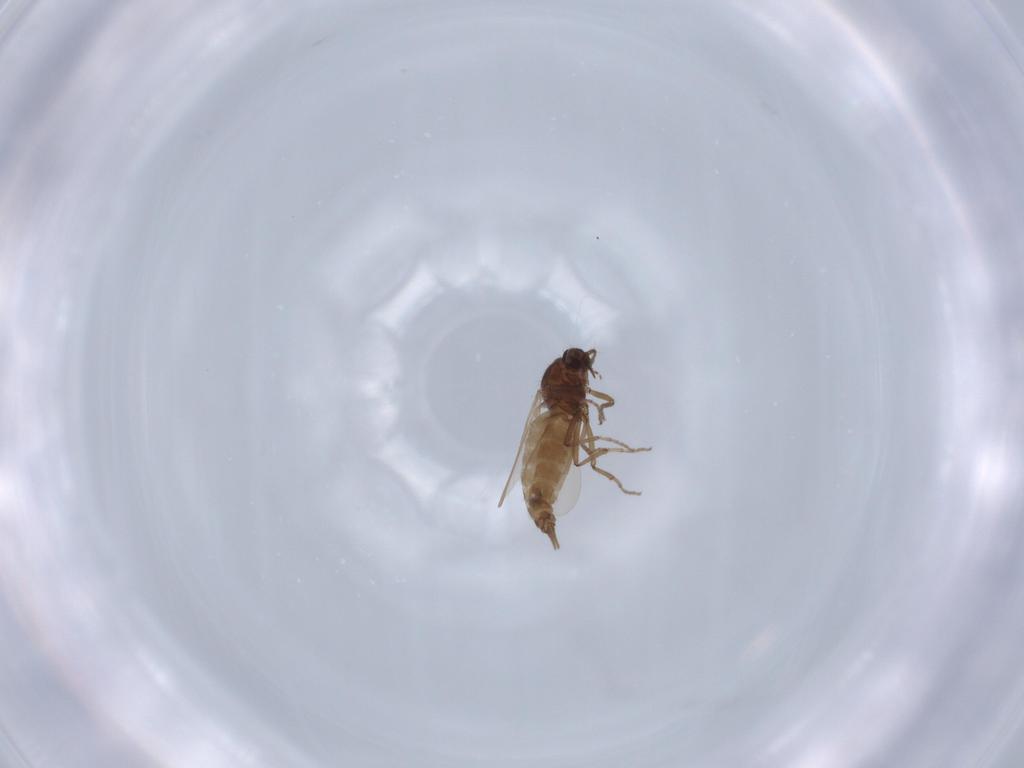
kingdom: Animalia
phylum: Arthropoda
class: Insecta
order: Diptera
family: Ceratopogonidae
